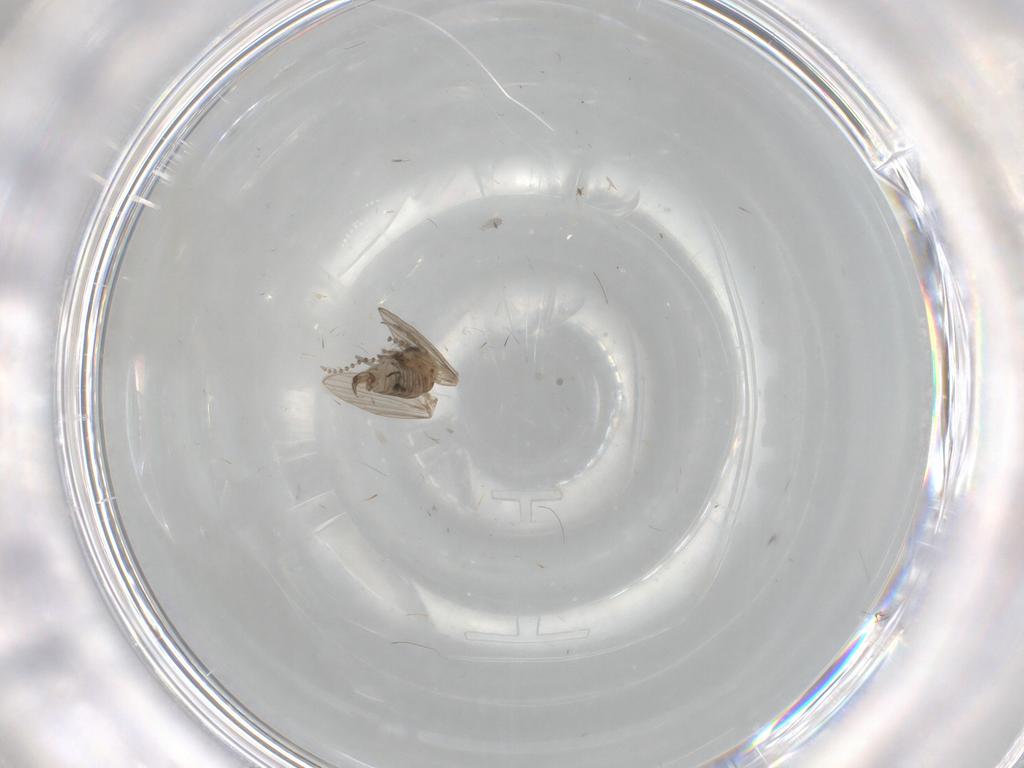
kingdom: Animalia
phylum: Arthropoda
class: Insecta
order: Diptera
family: Psychodidae
